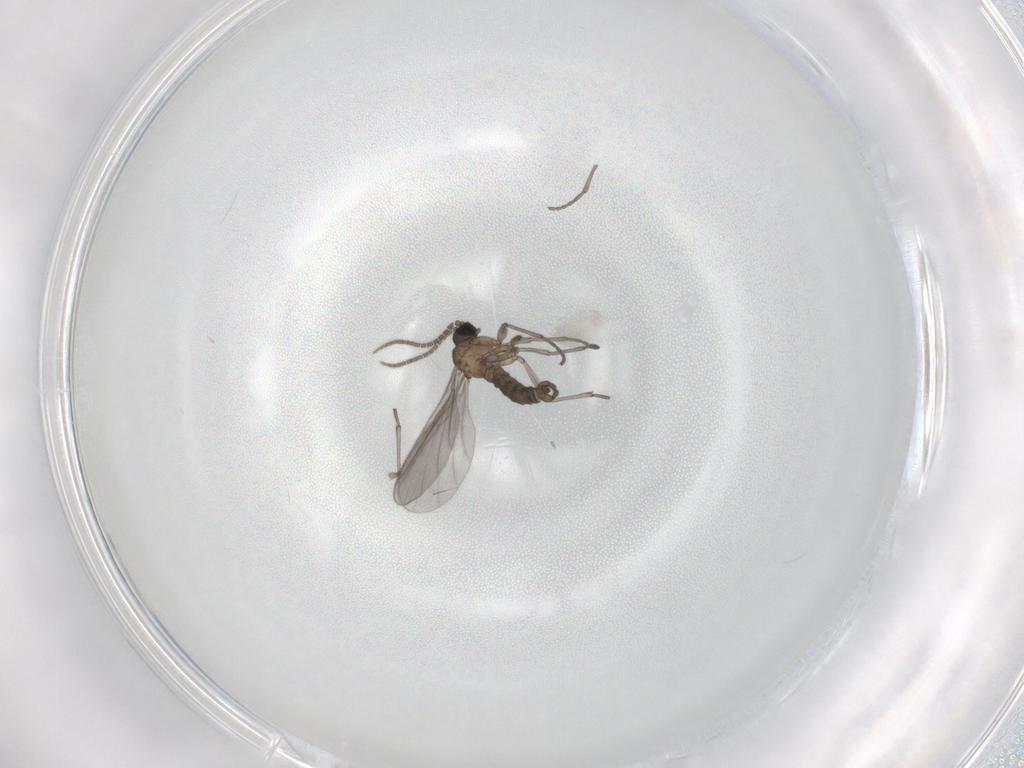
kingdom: Animalia
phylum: Arthropoda
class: Insecta
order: Diptera
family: Sciaridae
